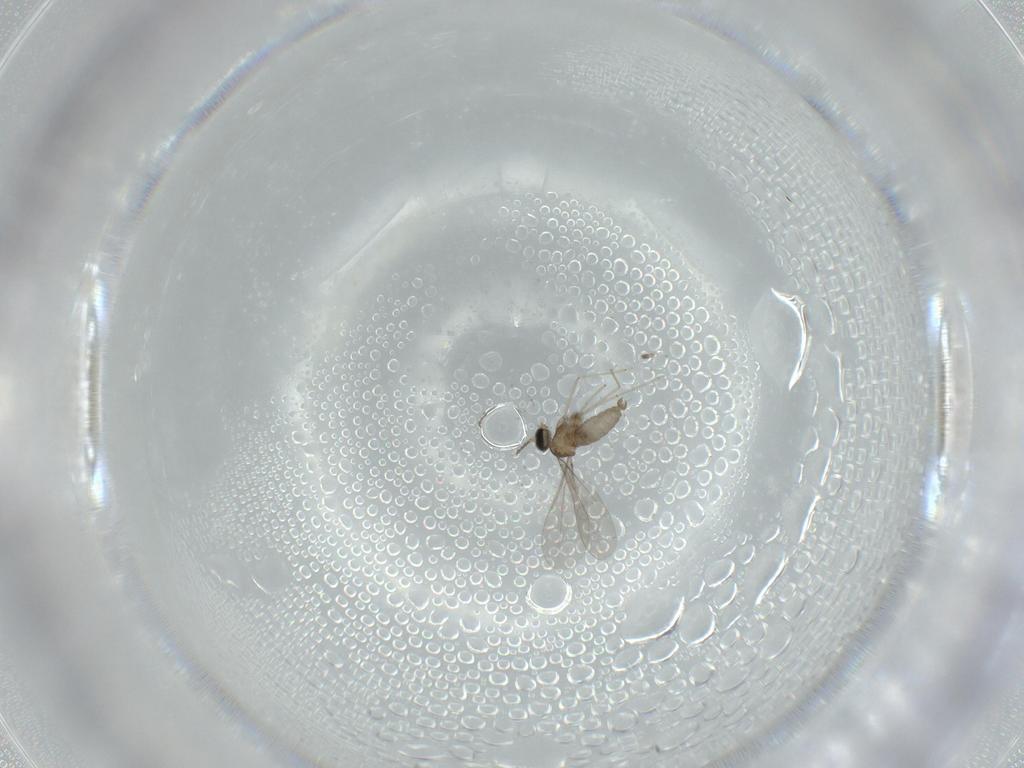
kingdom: Animalia
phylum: Arthropoda
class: Insecta
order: Diptera
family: Cecidomyiidae
